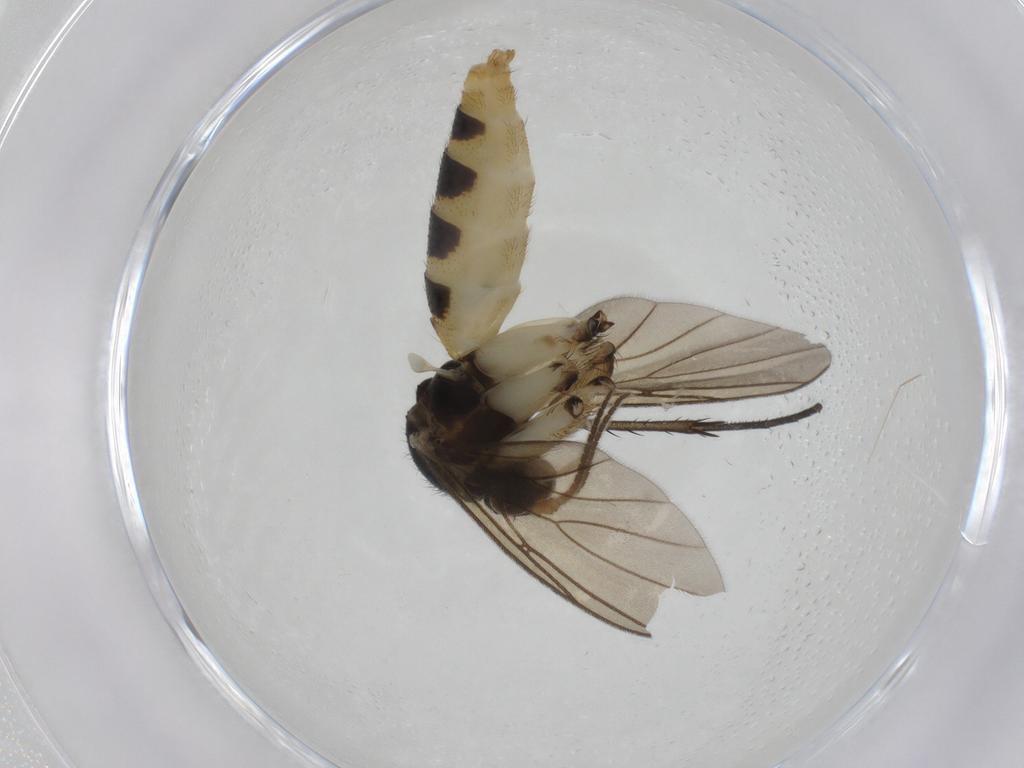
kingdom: Animalia
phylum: Arthropoda
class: Insecta
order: Diptera
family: Mycetophilidae
